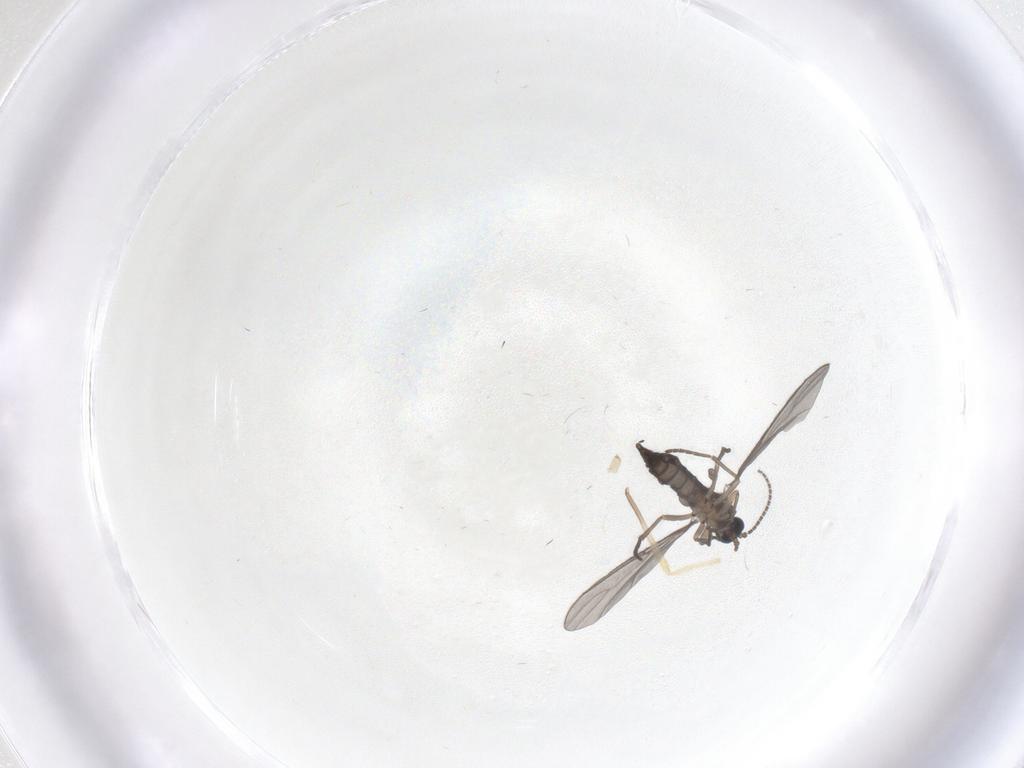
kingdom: Animalia
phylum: Arthropoda
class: Insecta
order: Diptera
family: Sciaridae
